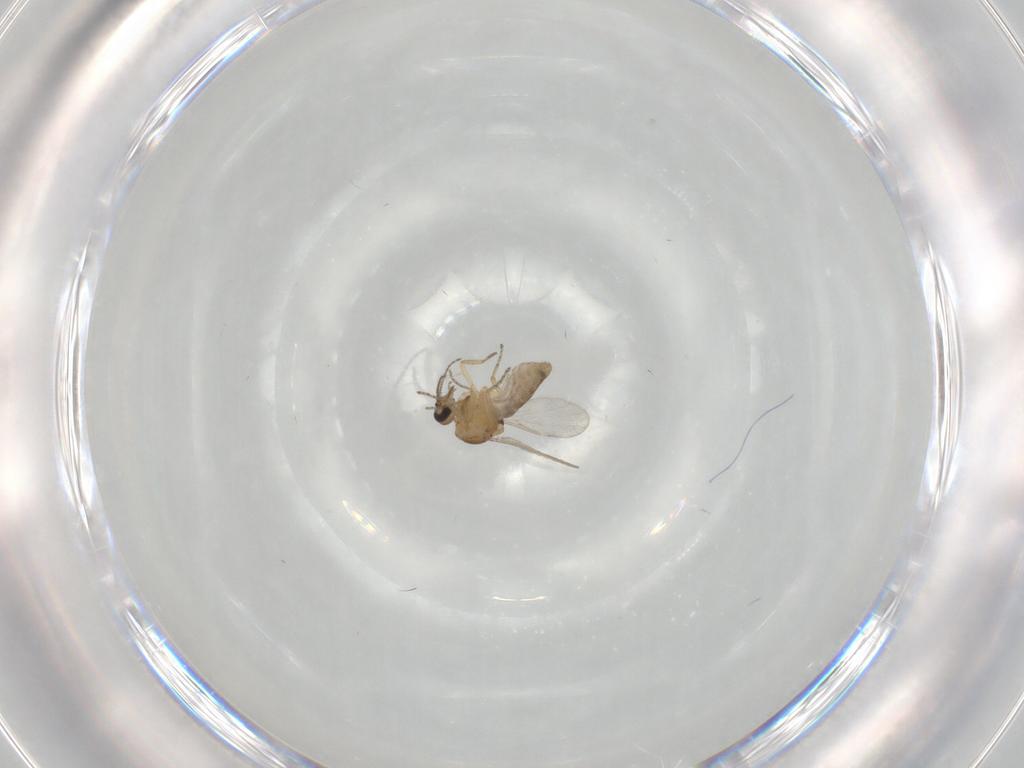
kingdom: Animalia
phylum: Arthropoda
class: Insecta
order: Diptera
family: Ceratopogonidae
